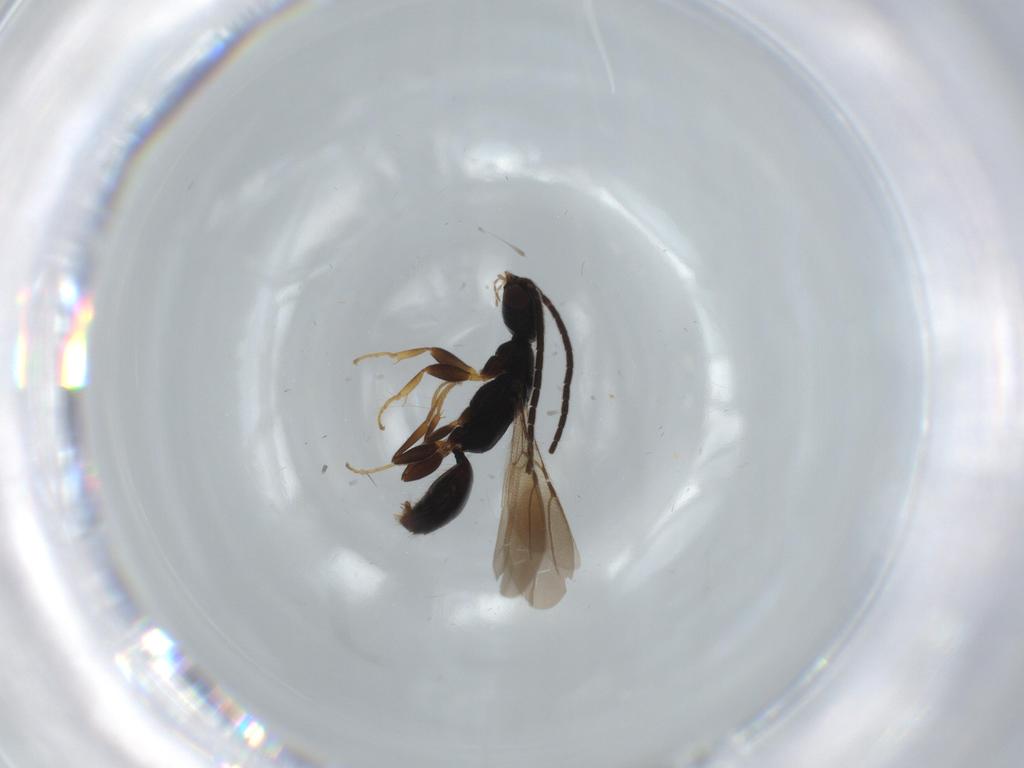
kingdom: Animalia
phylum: Arthropoda
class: Insecta
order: Hymenoptera
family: Bethylidae
